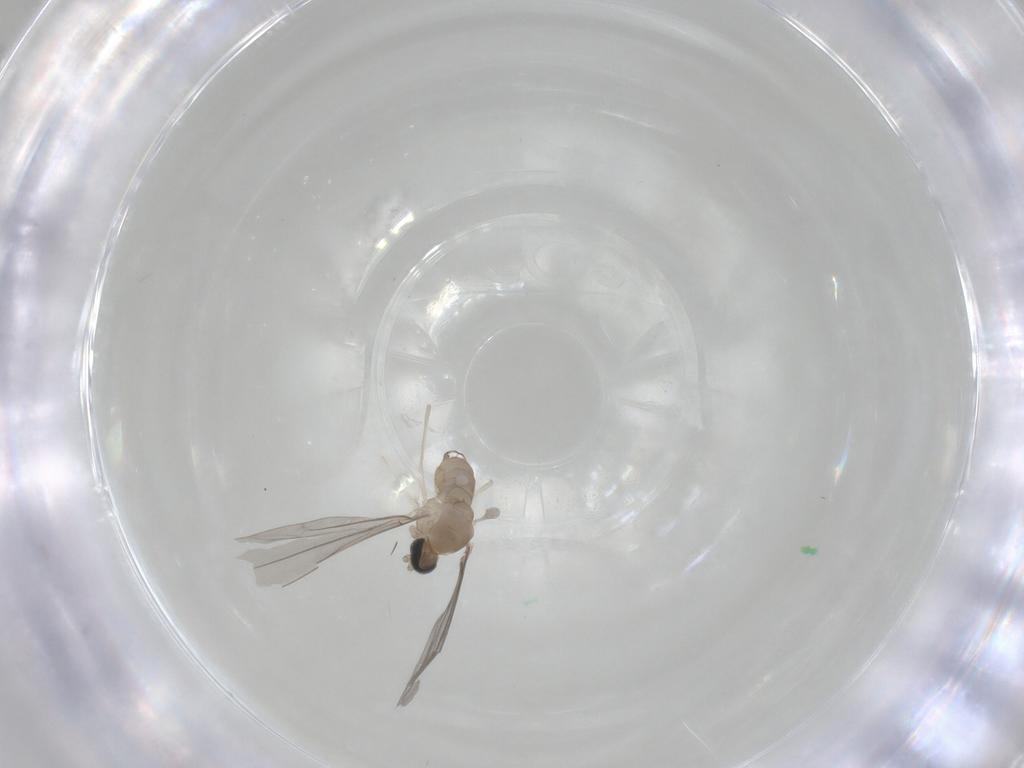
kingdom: Animalia
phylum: Arthropoda
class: Insecta
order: Diptera
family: Cecidomyiidae
